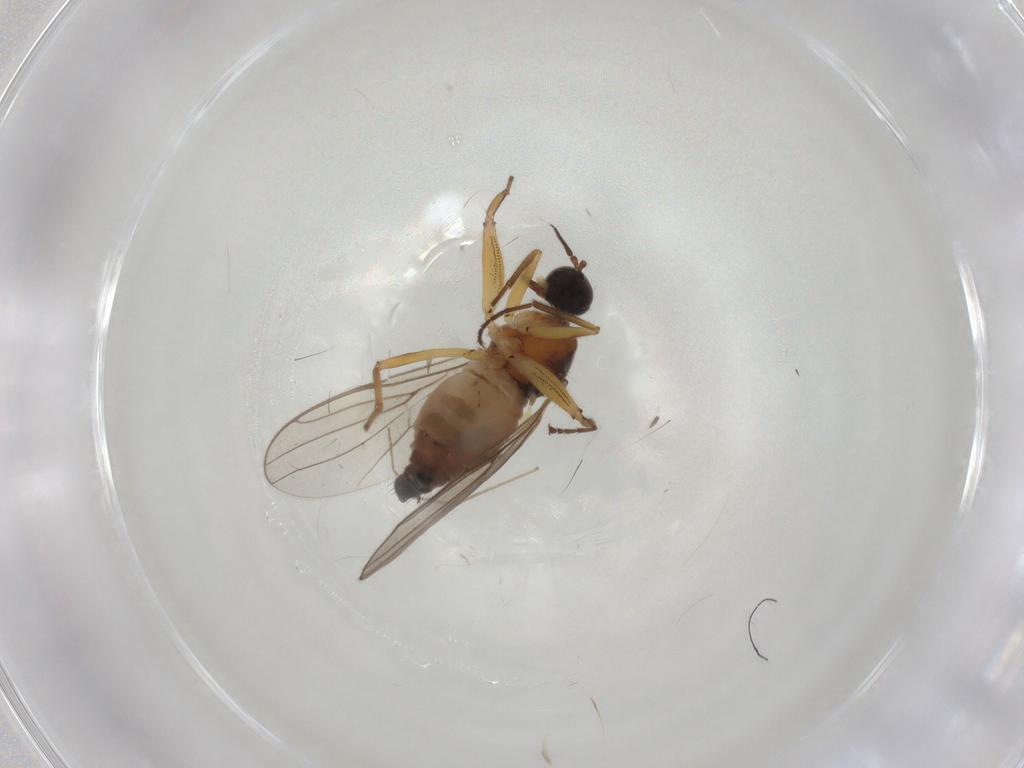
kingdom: Animalia
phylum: Arthropoda
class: Insecta
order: Diptera
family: Hybotidae
